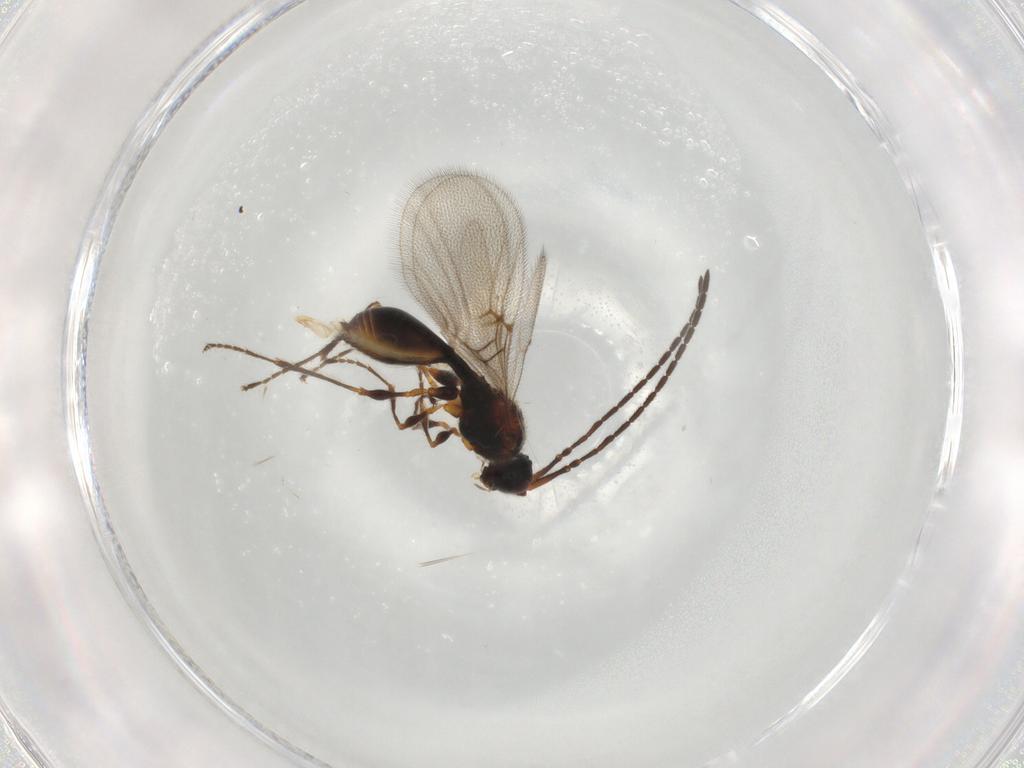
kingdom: Animalia
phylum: Arthropoda
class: Insecta
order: Hymenoptera
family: Diapriidae
